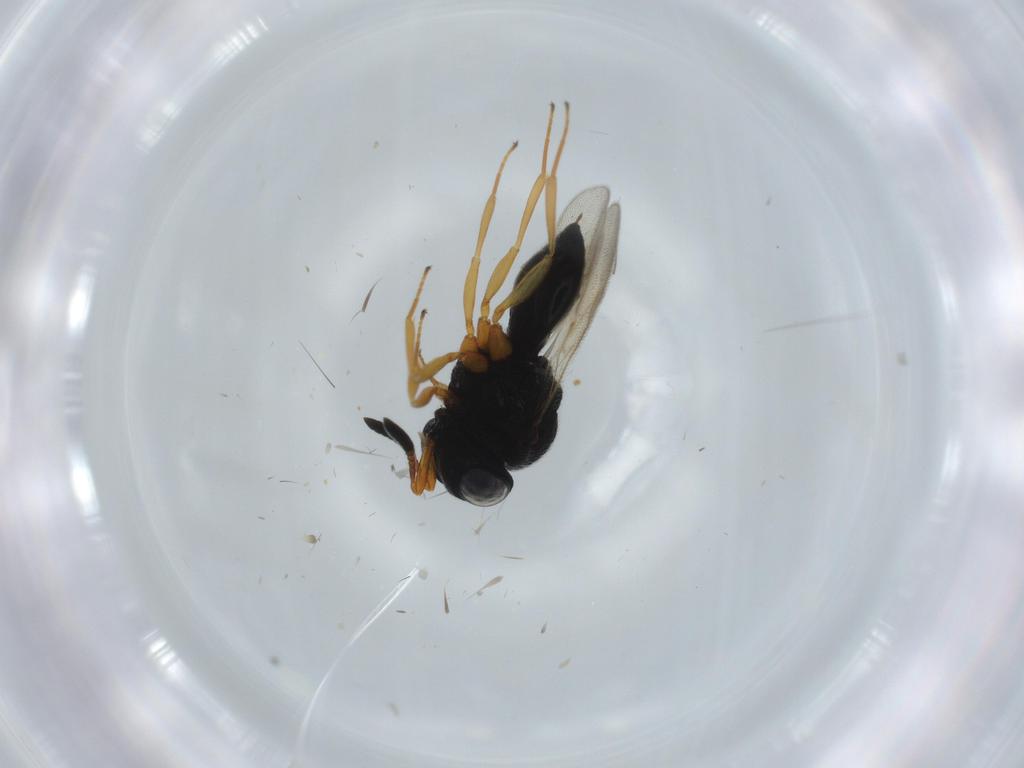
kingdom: Animalia
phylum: Arthropoda
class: Insecta
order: Hymenoptera
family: Scelionidae
